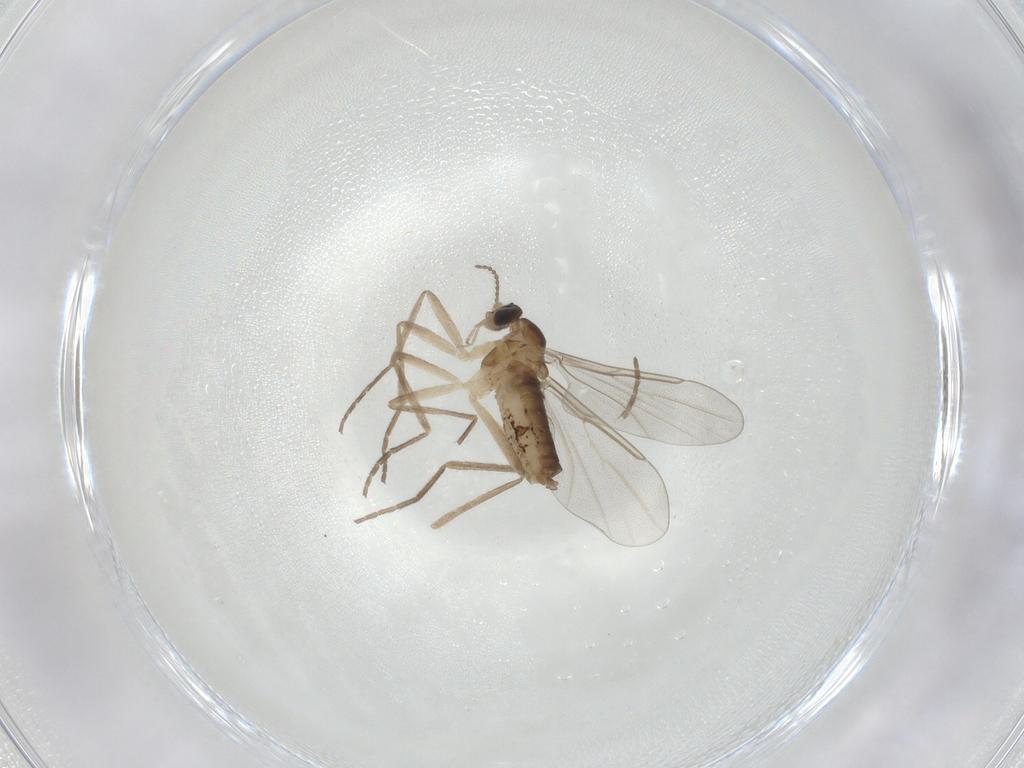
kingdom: Animalia
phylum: Arthropoda
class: Insecta
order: Diptera
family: Cecidomyiidae
